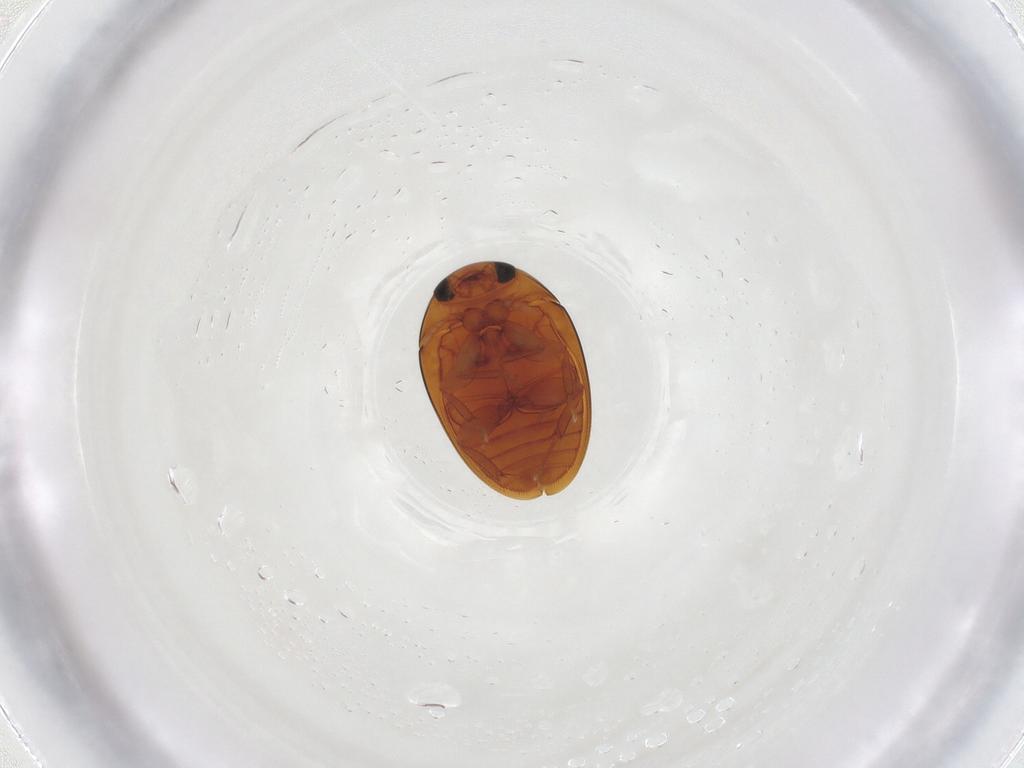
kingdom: Animalia
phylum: Arthropoda
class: Insecta
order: Coleoptera
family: Phalacridae
